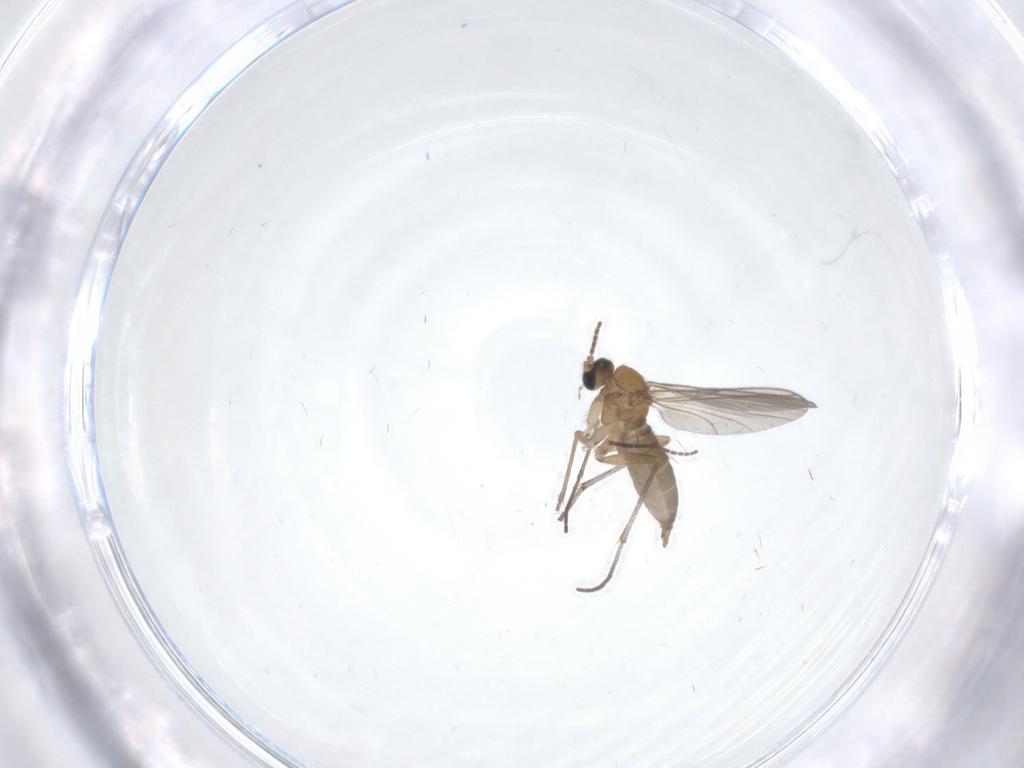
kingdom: Animalia
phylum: Arthropoda
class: Insecta
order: Diptera
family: Sciaridae
